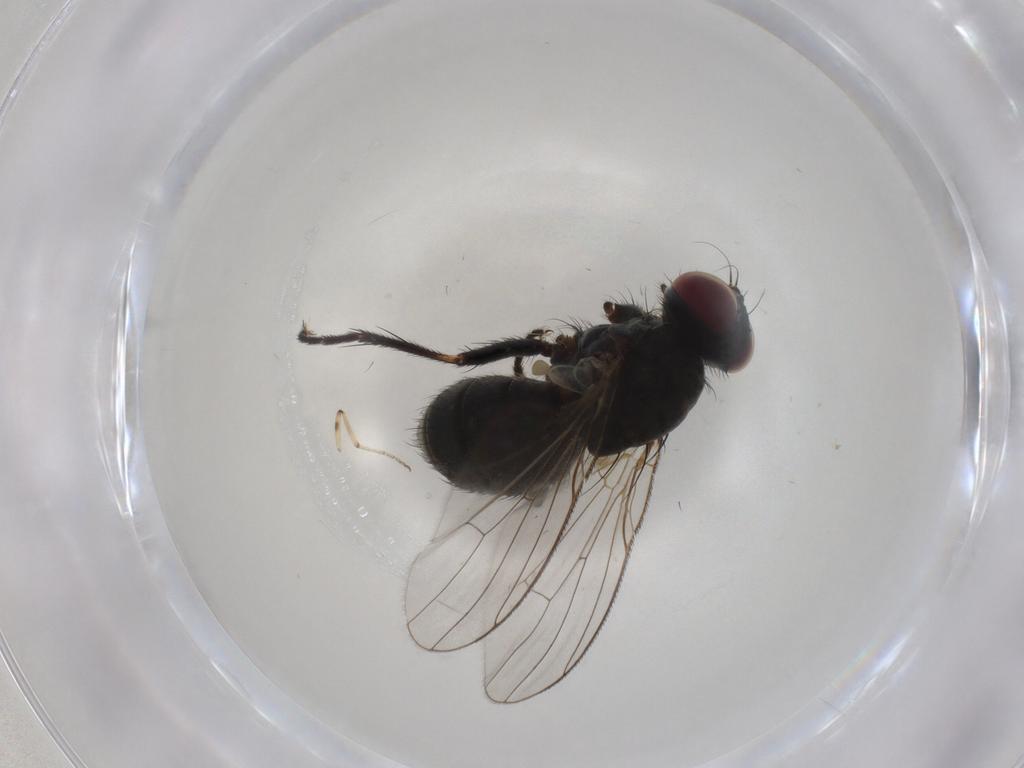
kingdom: Animalia
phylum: Arthropoda
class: Insecta
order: Diptera
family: Muscidae
